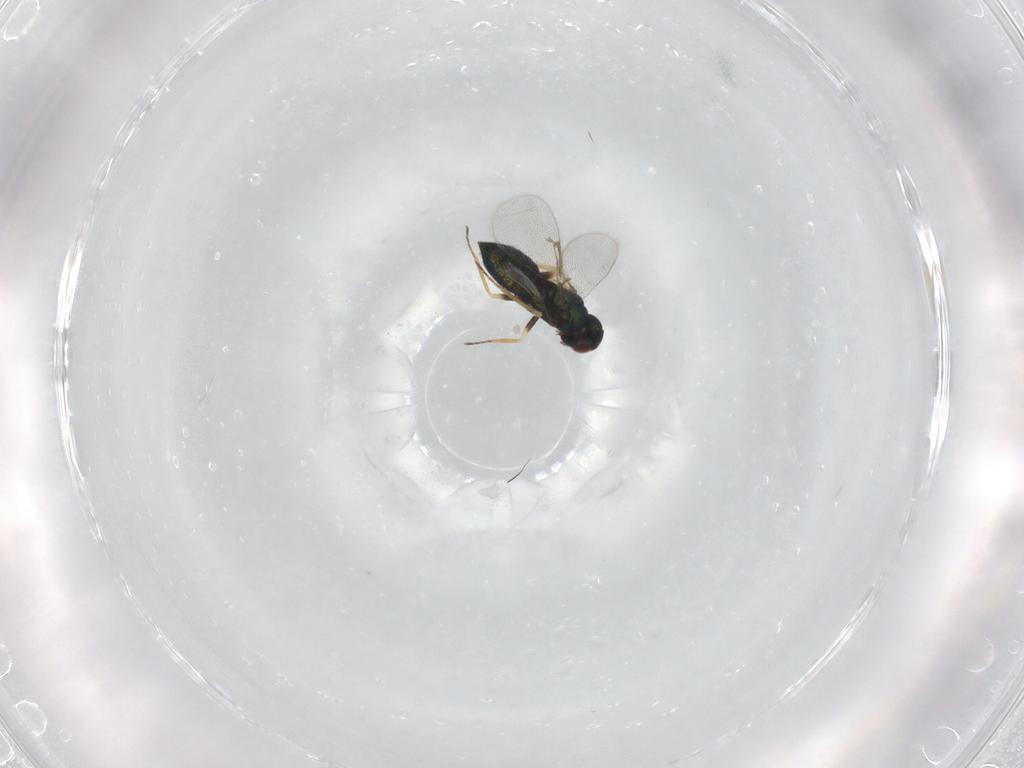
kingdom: Animalia
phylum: Arthropoda
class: Insecta
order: Hymenoptera
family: Eulophidae
